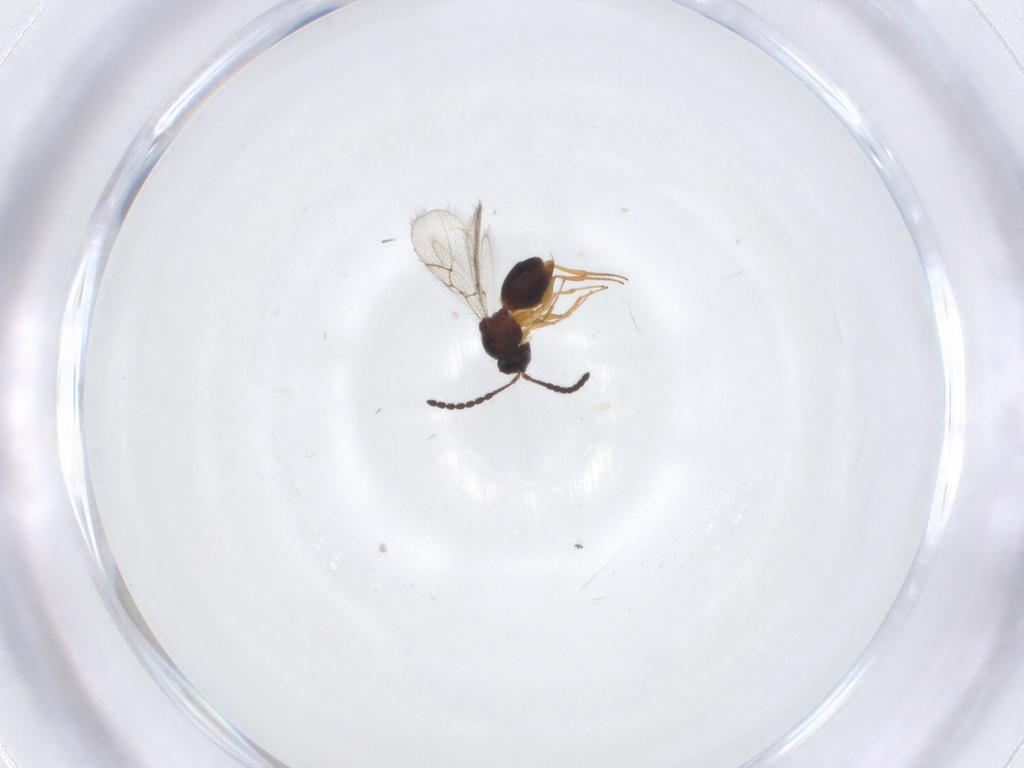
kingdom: Animalia
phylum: Arthropoda
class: Insecta
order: Hymenoptera
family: Figitidae
